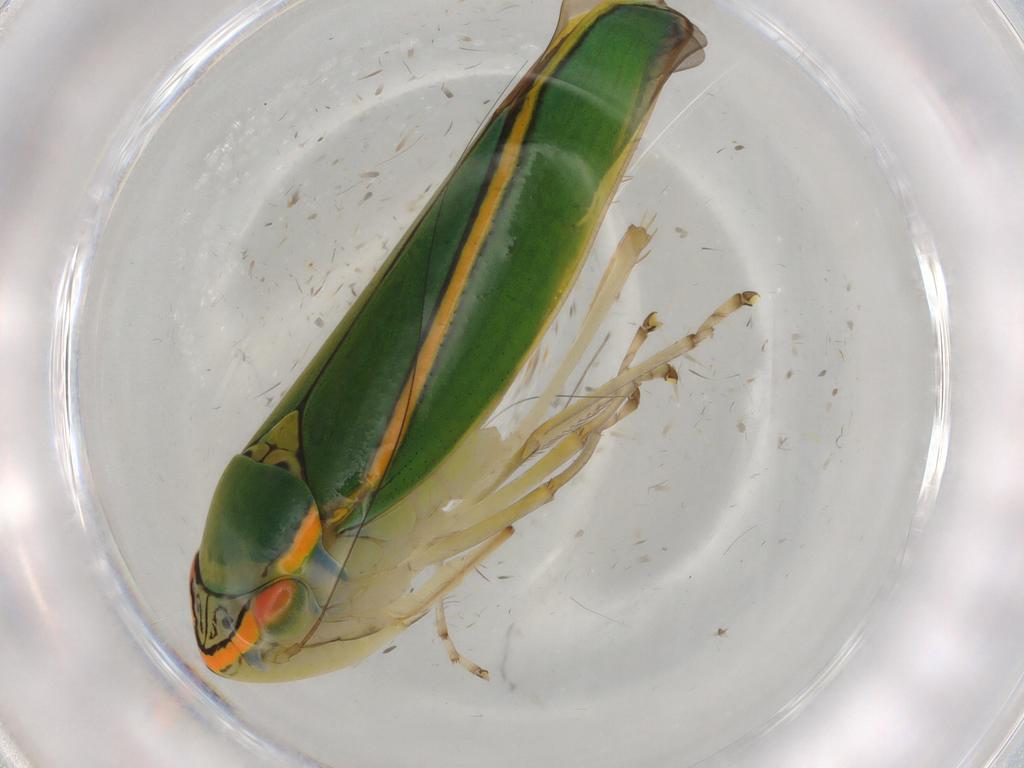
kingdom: Animalia
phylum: Arthropoda
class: Insecta
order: Hemiptera
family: Cicadellidae
